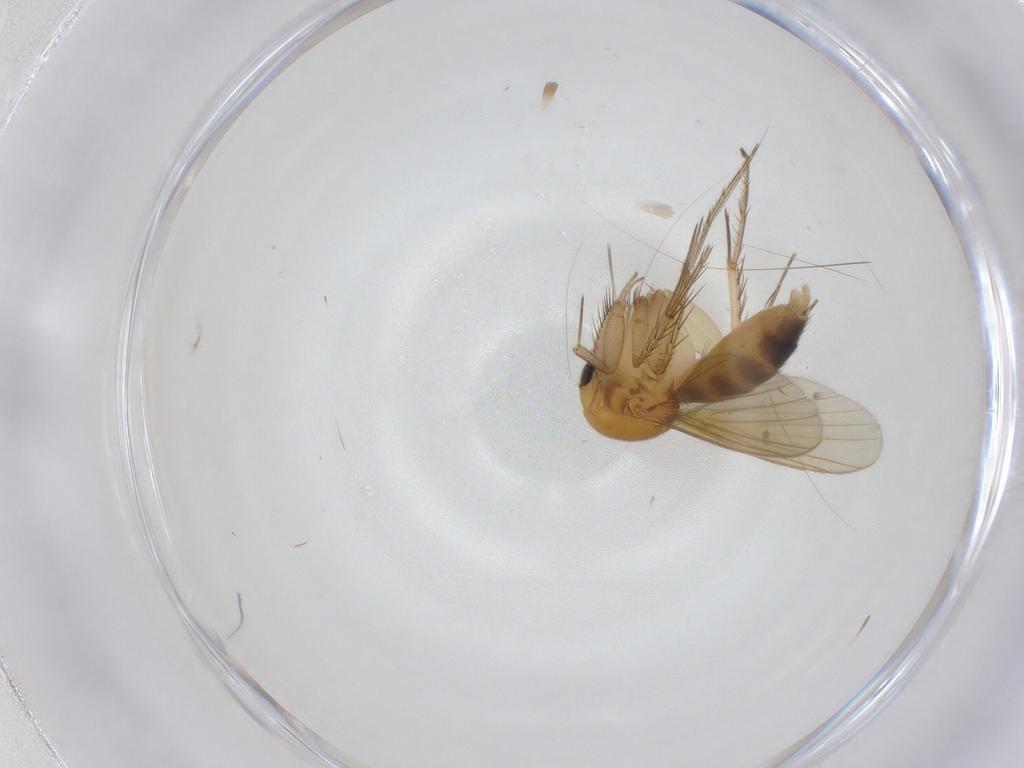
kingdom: Animalia
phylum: Arthropoda
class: Insecta
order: Diptera
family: Mycetophilidae
